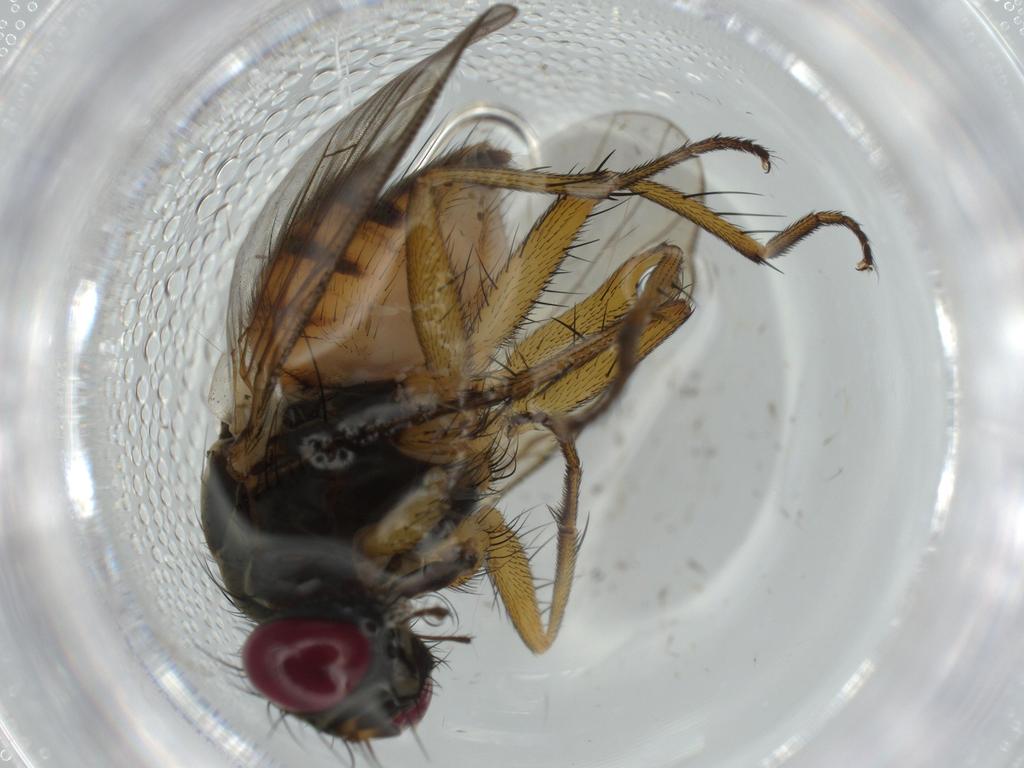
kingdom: Animalia
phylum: Arthropoda
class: Insecta
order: Diptera
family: Muscidae
